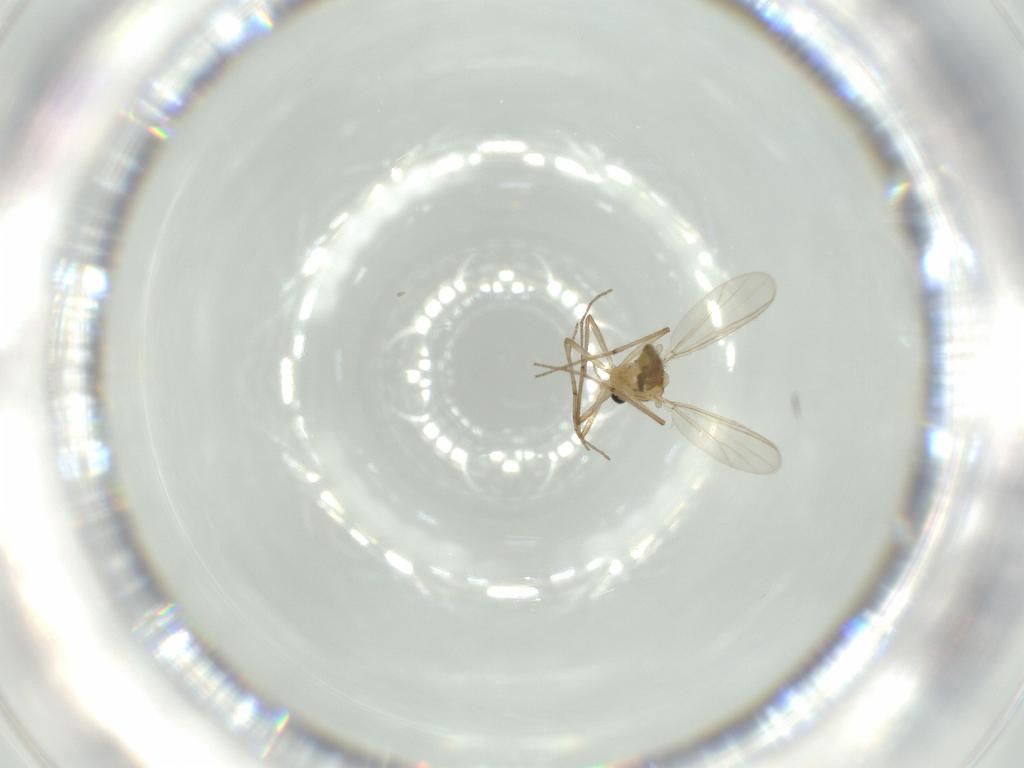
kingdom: Animalia
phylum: Arthropoda
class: Insecta
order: Diptera
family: Chironomidae
